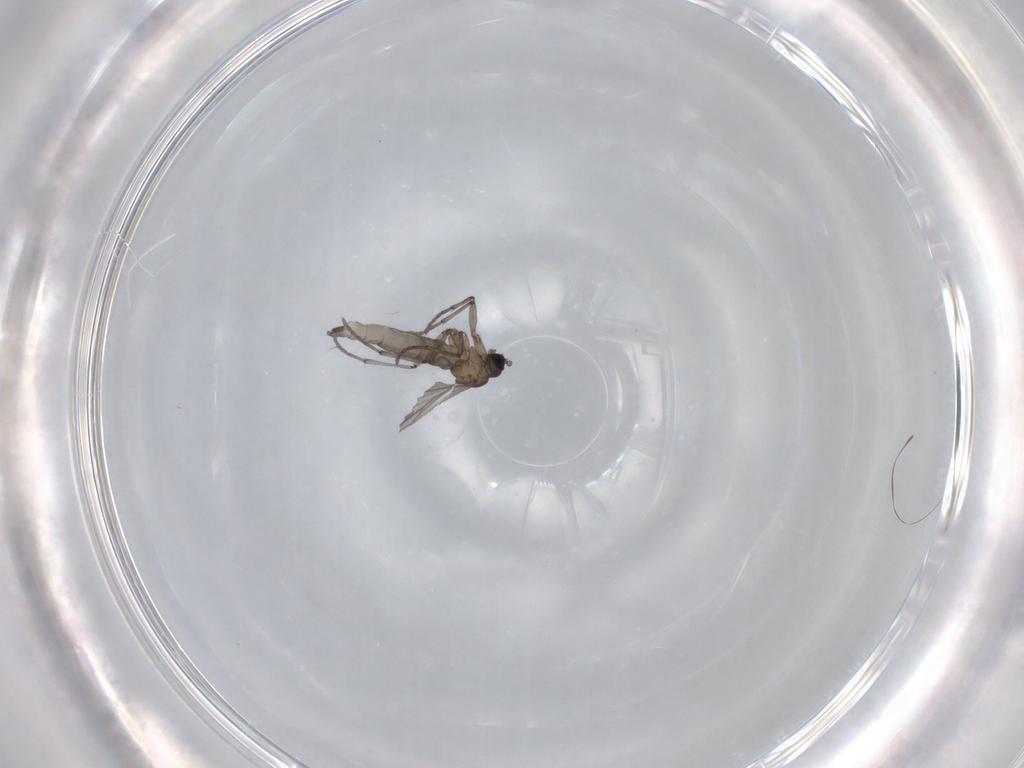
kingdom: Animalia
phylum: Arthropoda
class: Insecta
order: Diptera
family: Sciaridae
